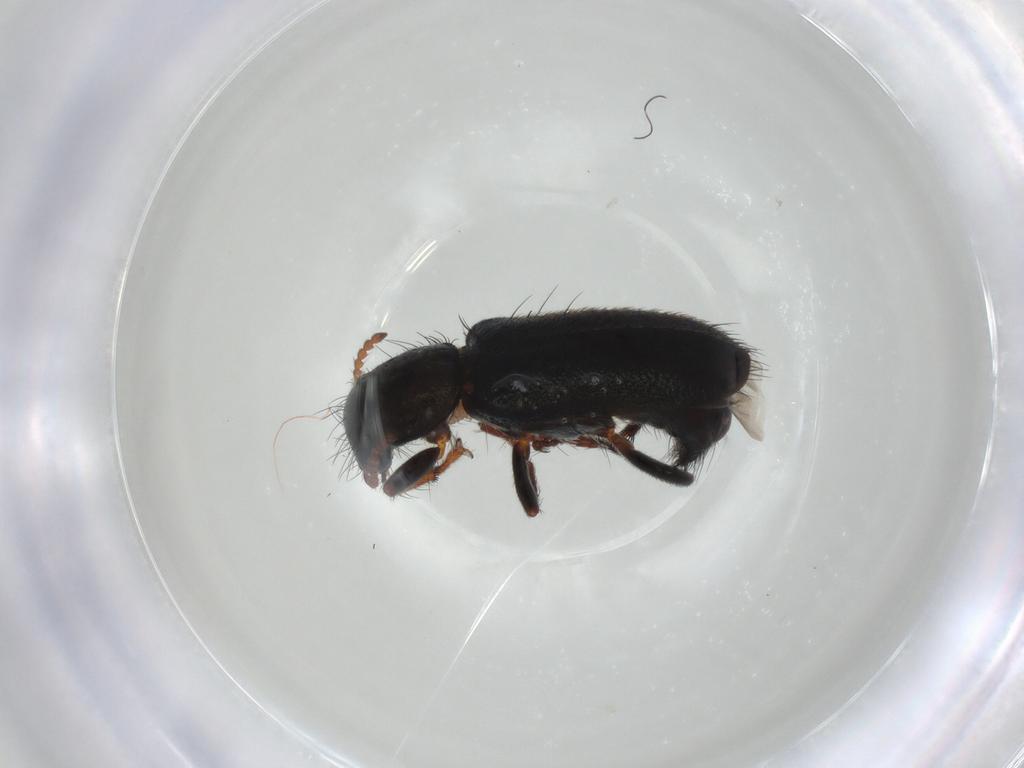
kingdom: Animalia
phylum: Arthropoda
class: Insecta
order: Coleoptera
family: Melyridae
